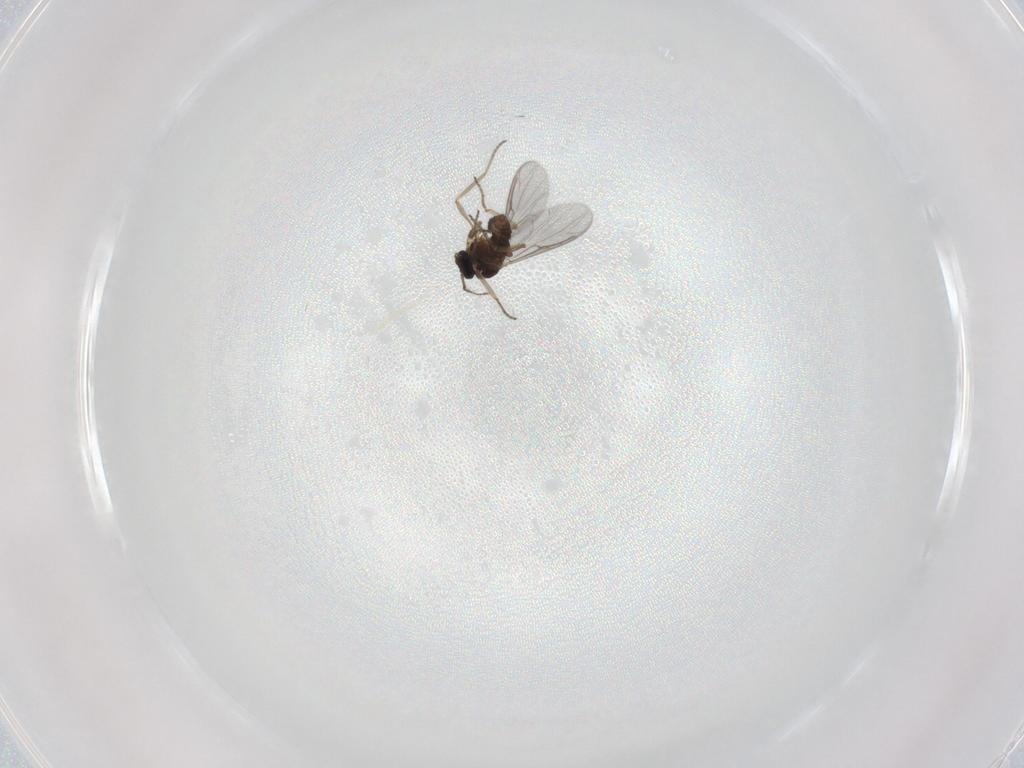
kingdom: Animalia
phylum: Arthropoda
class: Insecta
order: Diptera
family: Ceratopogonidae
